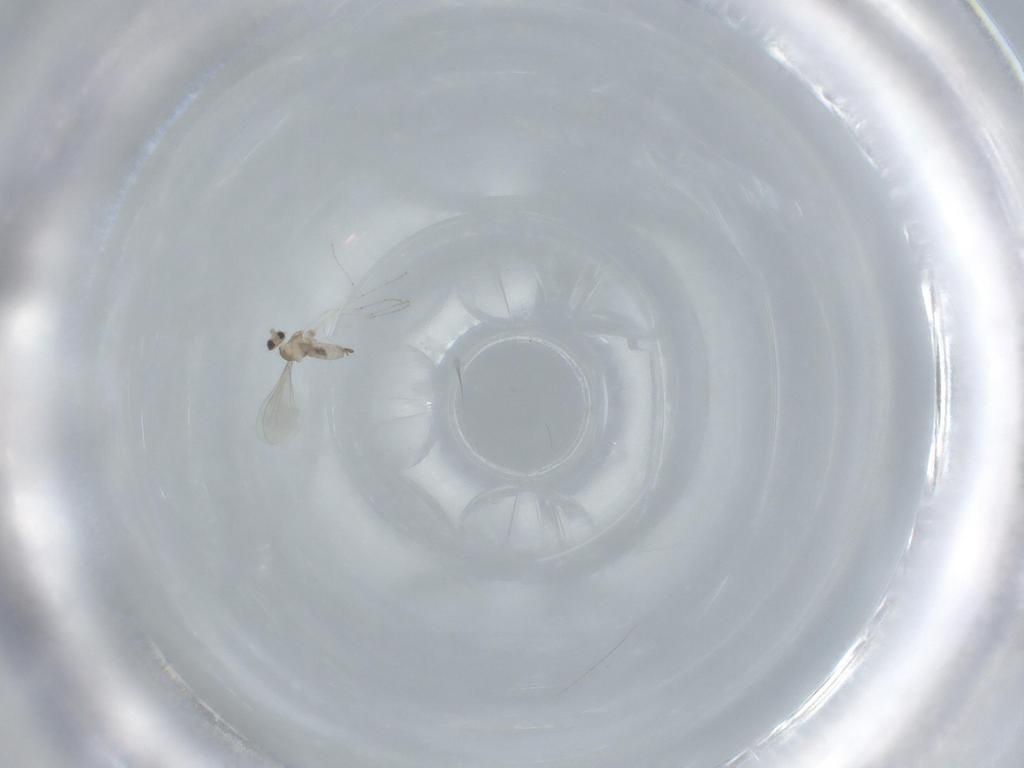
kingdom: Animalia
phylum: Arthropoda
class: Insecta
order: Diptera
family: Cecidomyiidae
